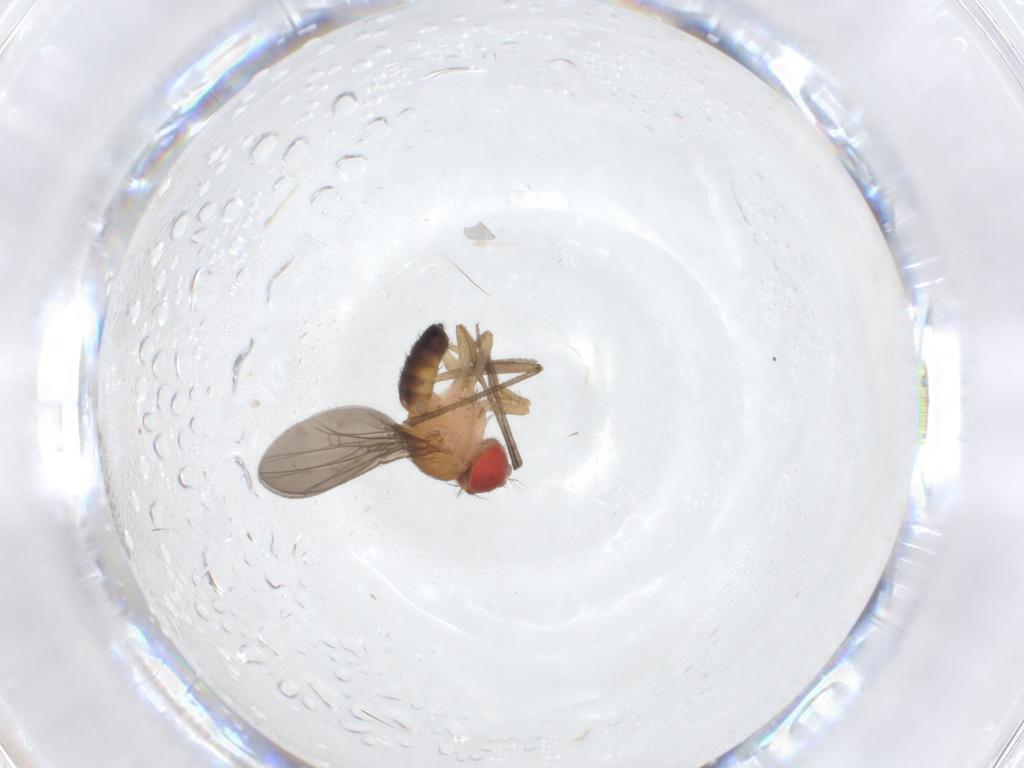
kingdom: Animalia
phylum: Arthropoda
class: Insecta
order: Diptera
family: Drosophilidae
